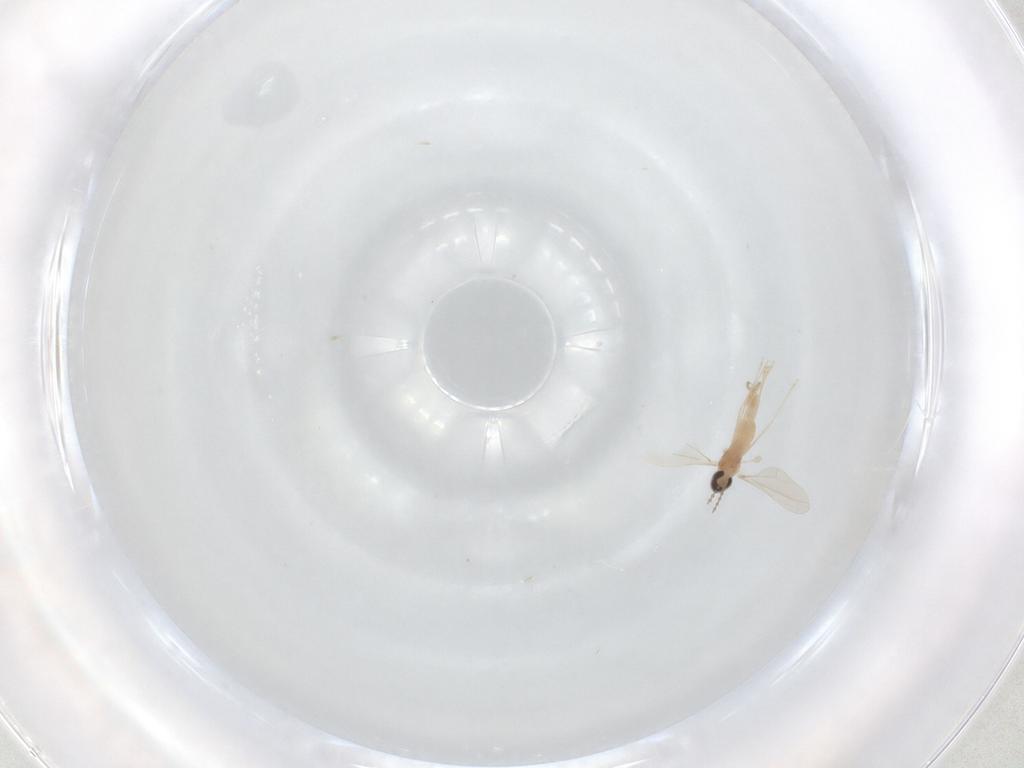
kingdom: Animalia
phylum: Arthropoda
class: Insecta
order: Diptera
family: Cecidomyiidae
